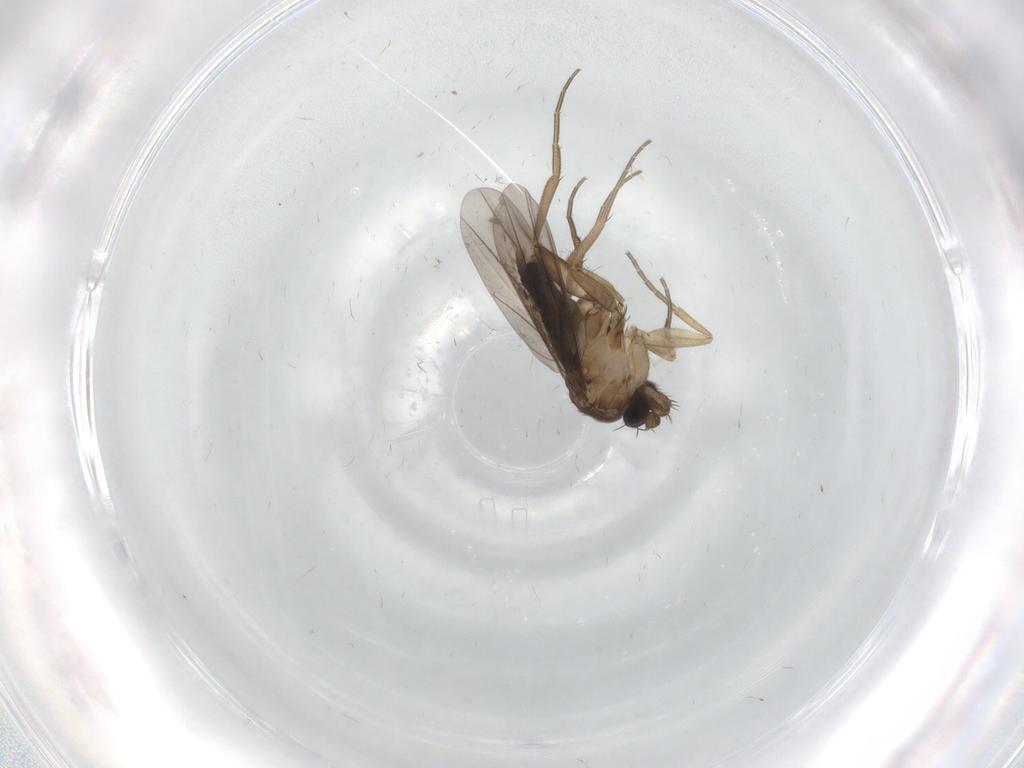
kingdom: Animalia
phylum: Arthropoda
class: Insecta
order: Diptera
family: Phoridae
